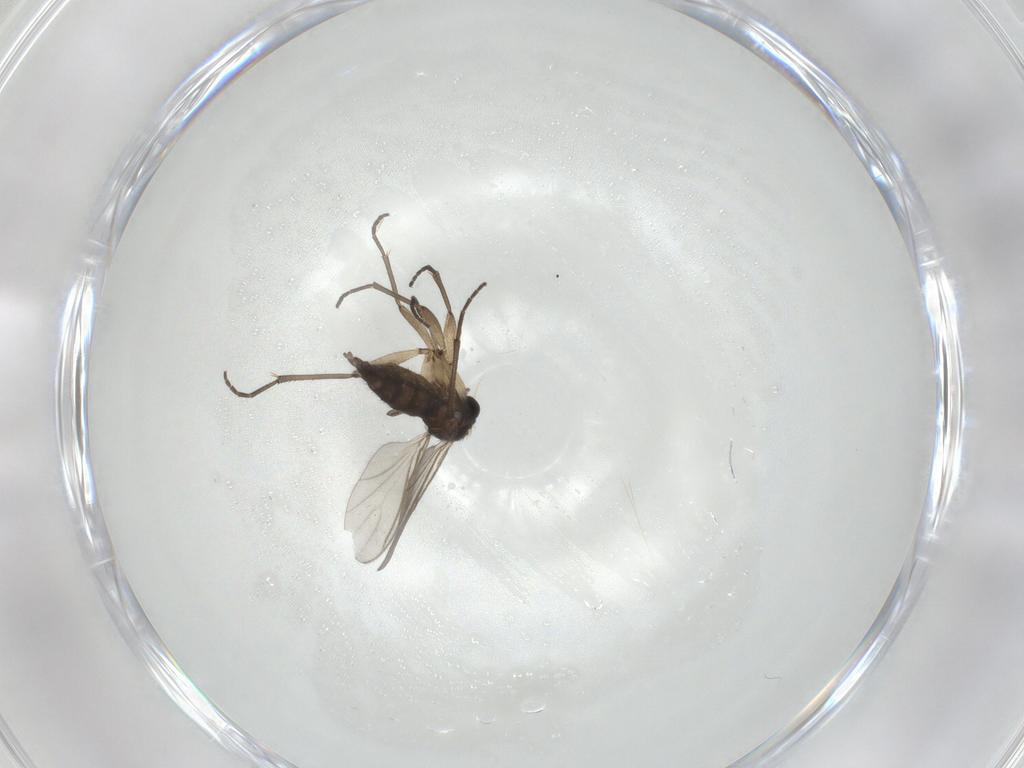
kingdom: Animalia
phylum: Arthropoda
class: Insecta
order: Diptera
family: Sciaridae
